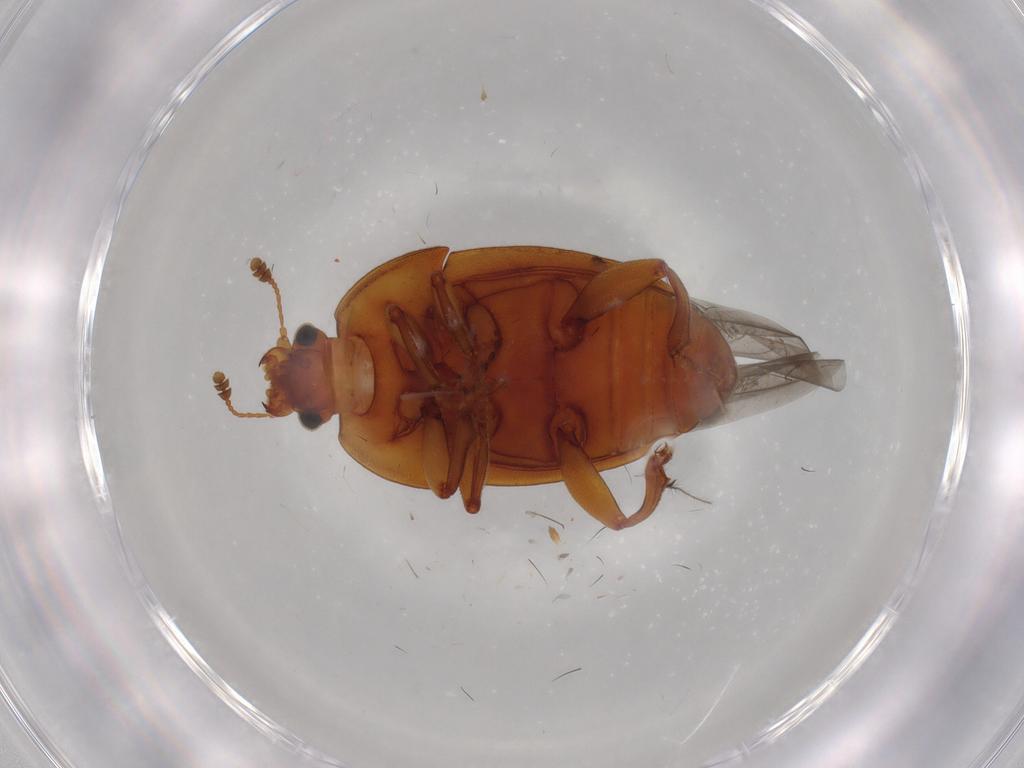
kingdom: Animalia
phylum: Arthropoda
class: Insecta
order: Coleoptera
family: Nitidulidae
